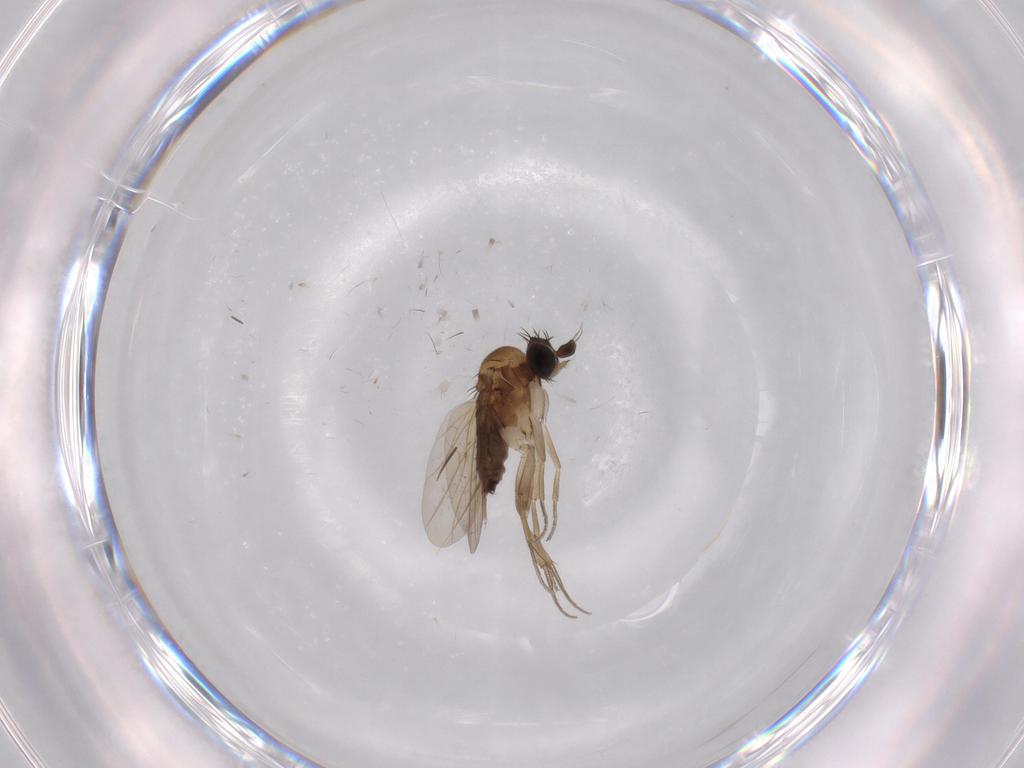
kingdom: Animalia
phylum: Arthropoda
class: Insecta
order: Diptera
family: Phoridae
